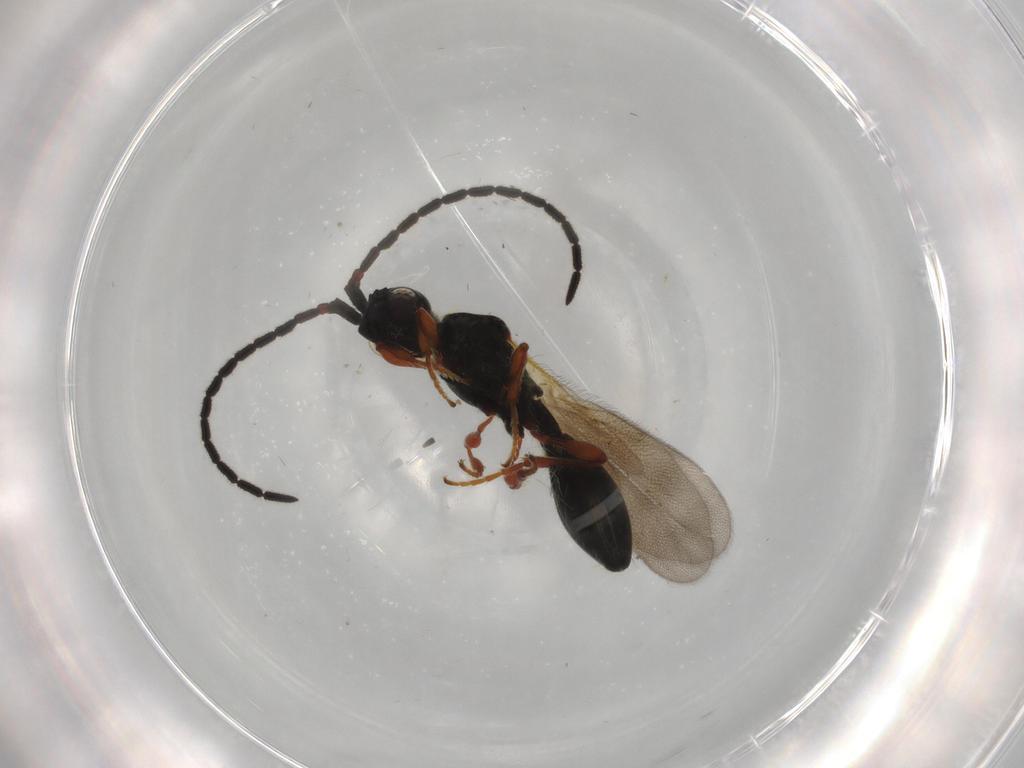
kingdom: Animalia
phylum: Arthropoda
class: Insecta
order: Hymenoptera
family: Diapriidae
